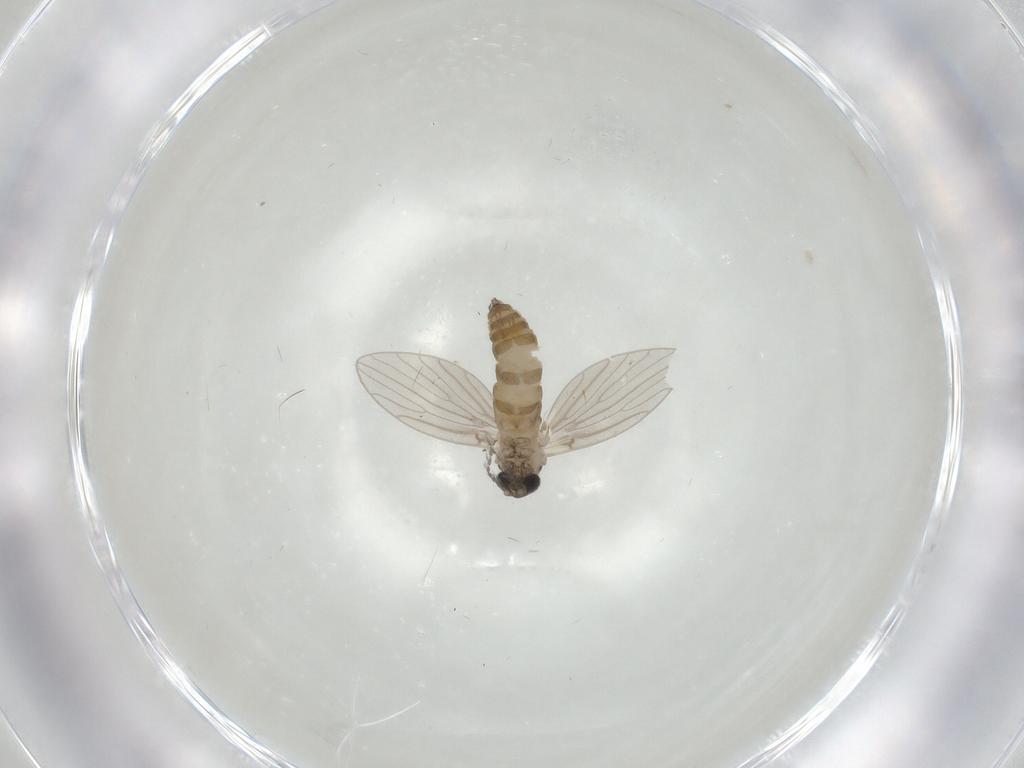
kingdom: Animalia
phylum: Arthropoda
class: Insecta
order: Diptera
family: Psychodidae
